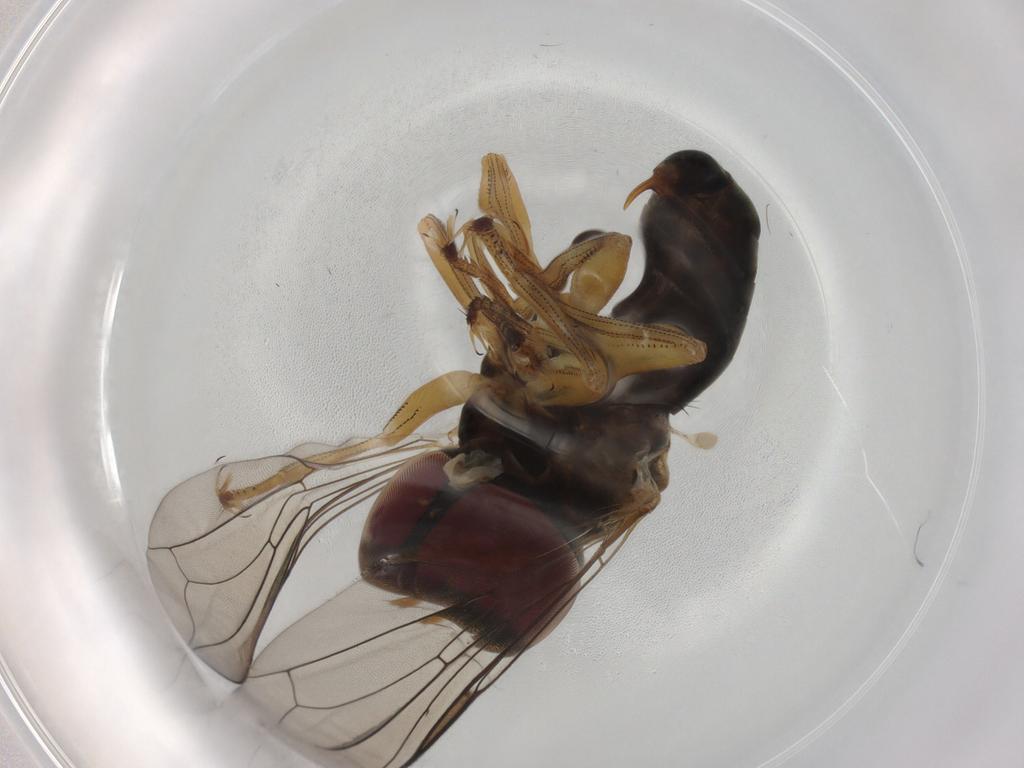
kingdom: Animalia
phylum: Arthropoda
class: Insecta
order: Diptera
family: Pipunculidae
